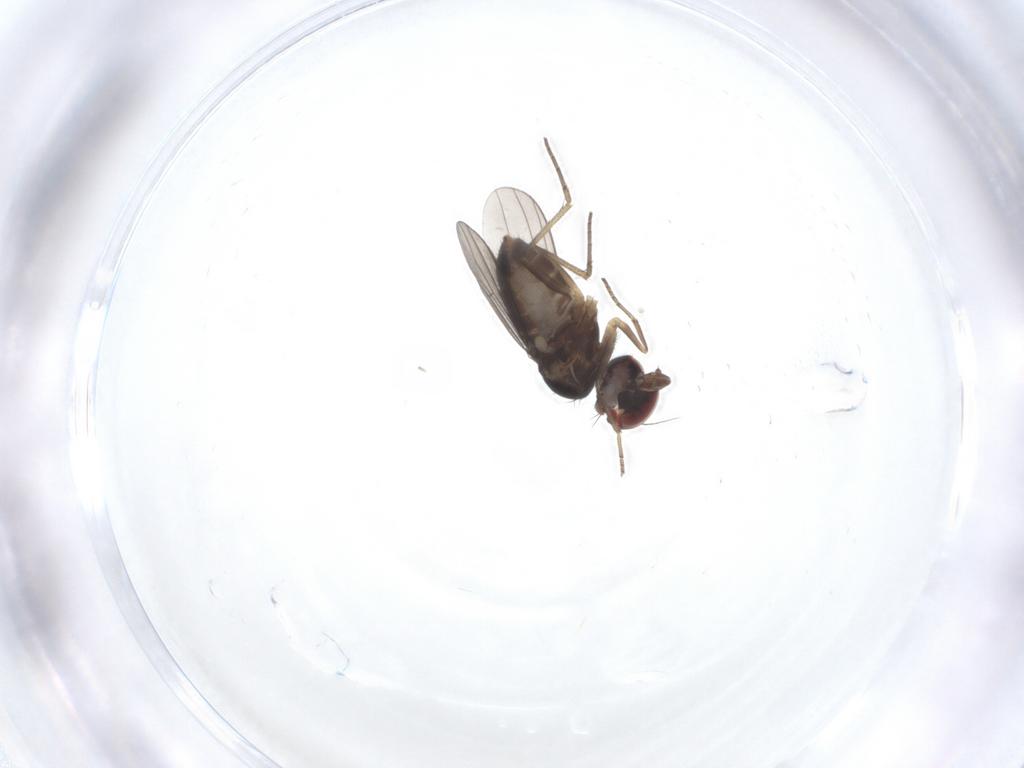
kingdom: Animalia
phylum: Arthropoda
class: Insecta
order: Diptera
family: Dolichopodidae
